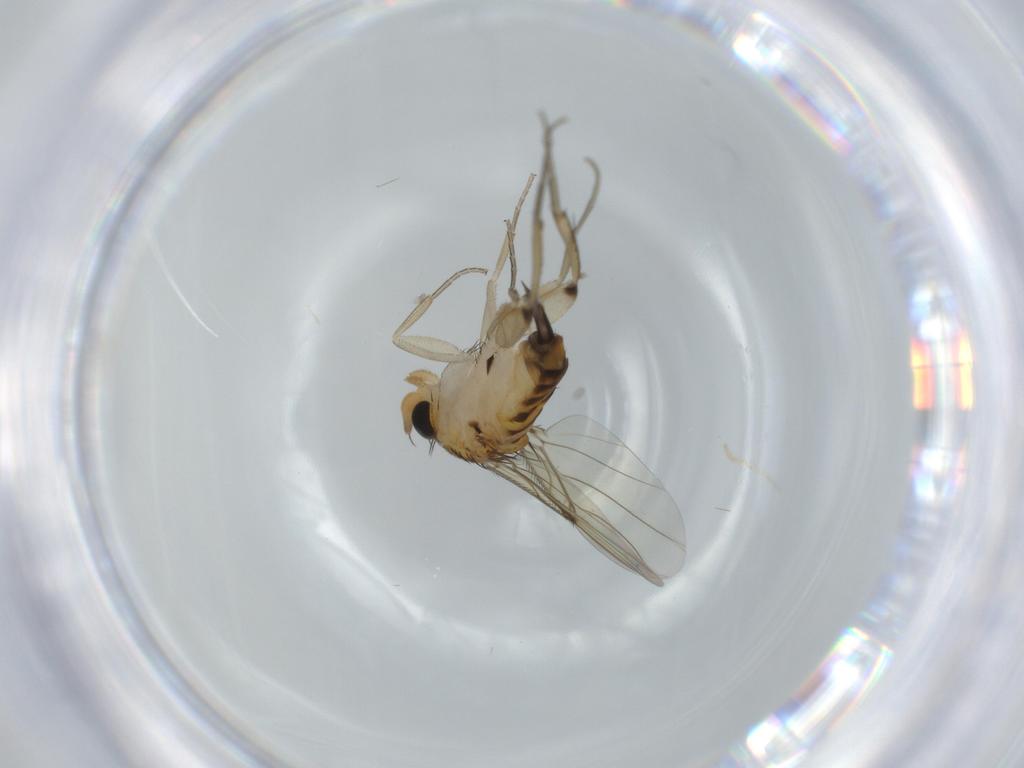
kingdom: Animalia
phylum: Arthropoda
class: Insecta
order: Diptera
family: Phoridae
